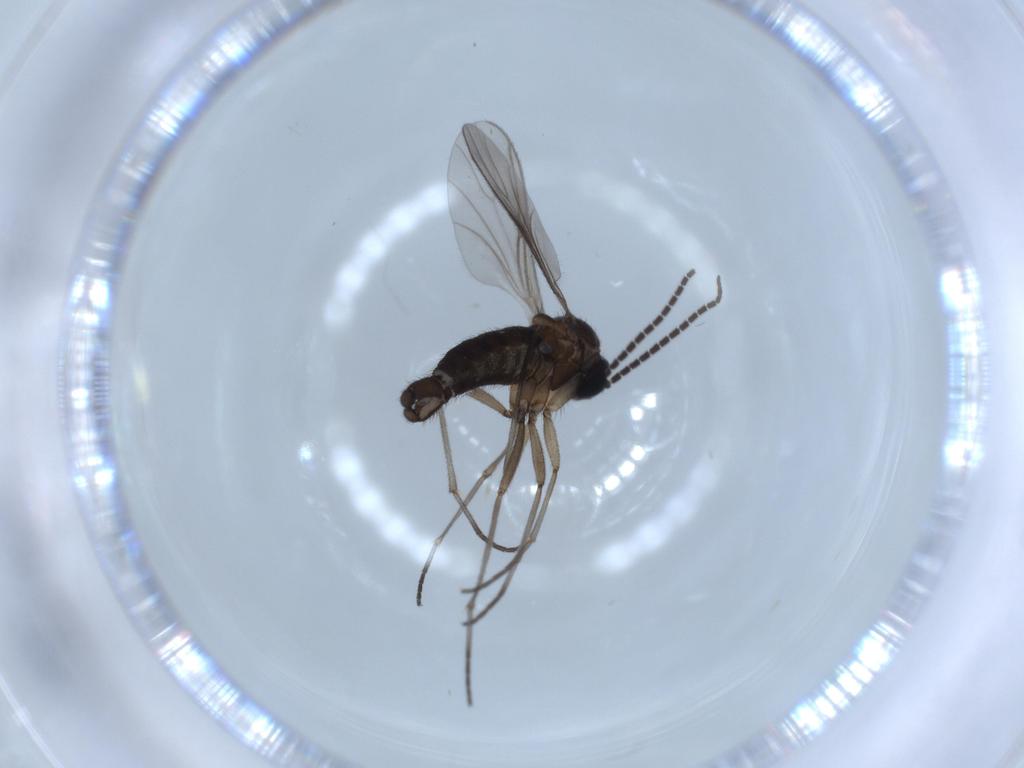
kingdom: Animalia
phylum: Arthropoda
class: Insecta
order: Diptera
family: Sciaridae
